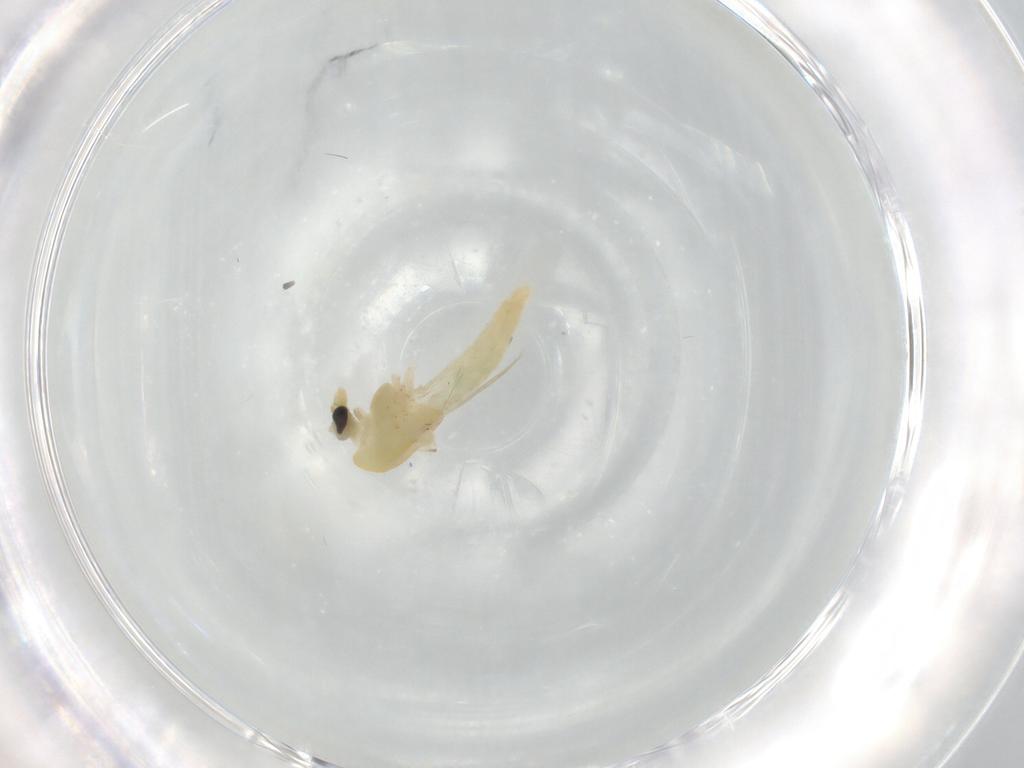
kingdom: Animalia
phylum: Arthropoda
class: Insecta
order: Diptera
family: Chironomidae
